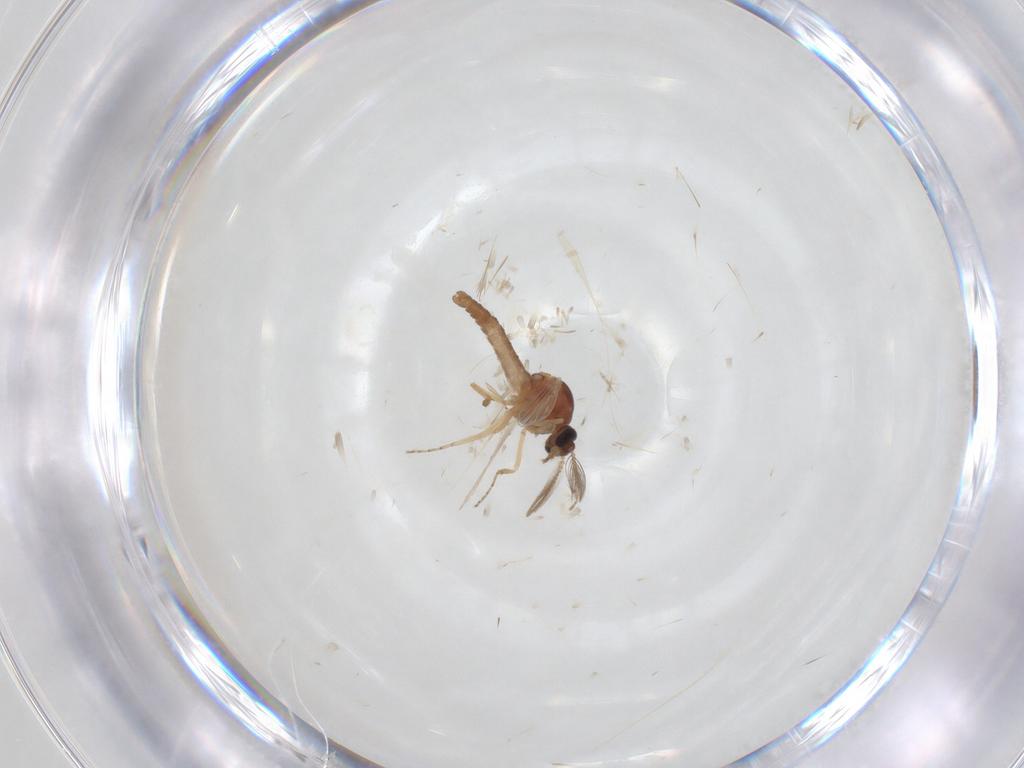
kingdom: Animalia
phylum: Arthropoda
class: Insecta
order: Diptera
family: Ceratopogonidae
